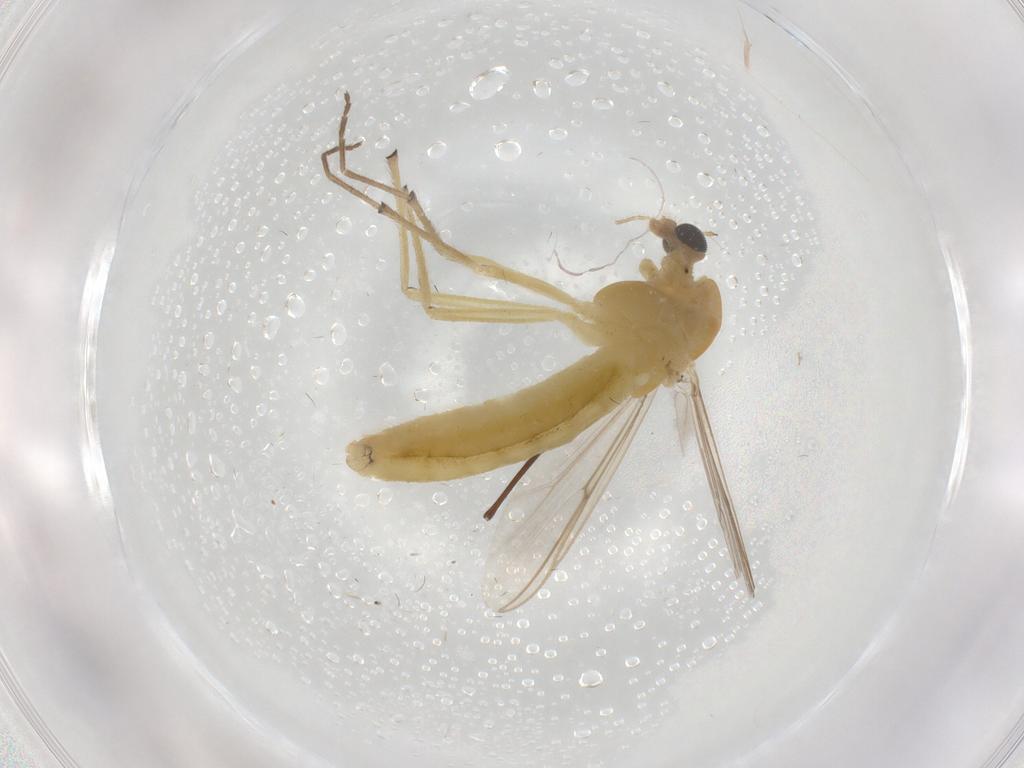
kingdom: Animalia
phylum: Arthropoda
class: Insecta
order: Diptera
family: Chironomidae
